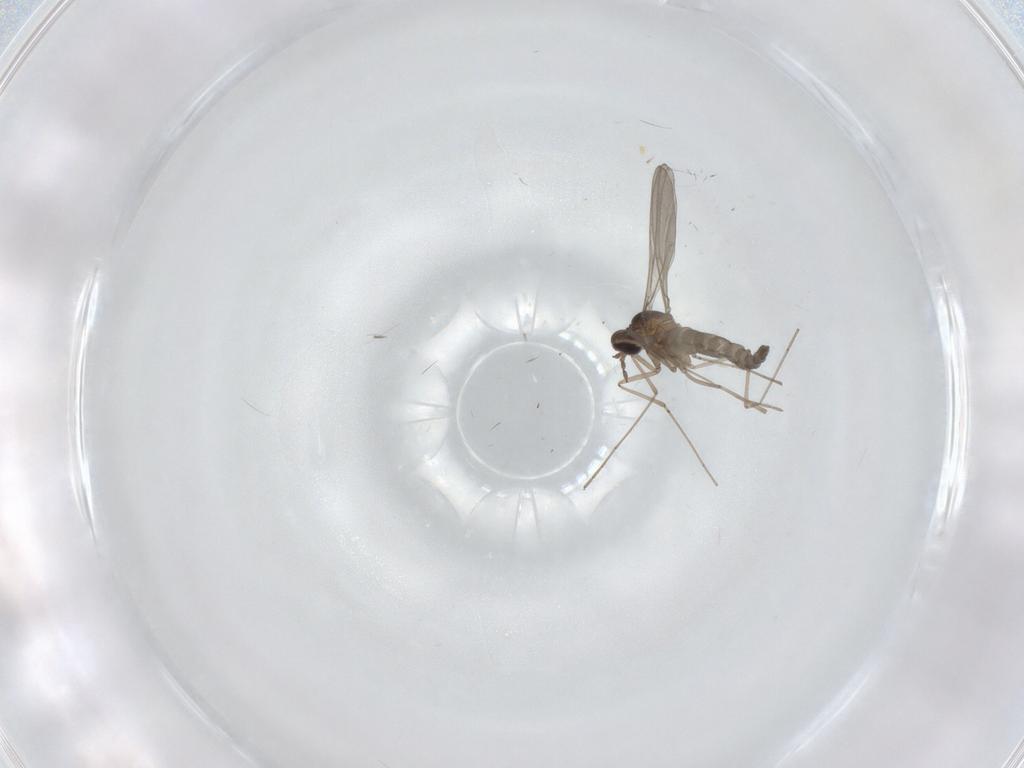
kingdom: Animalia
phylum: Arthropoda
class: Insecta
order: Diptera
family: Cecidomyiidae
